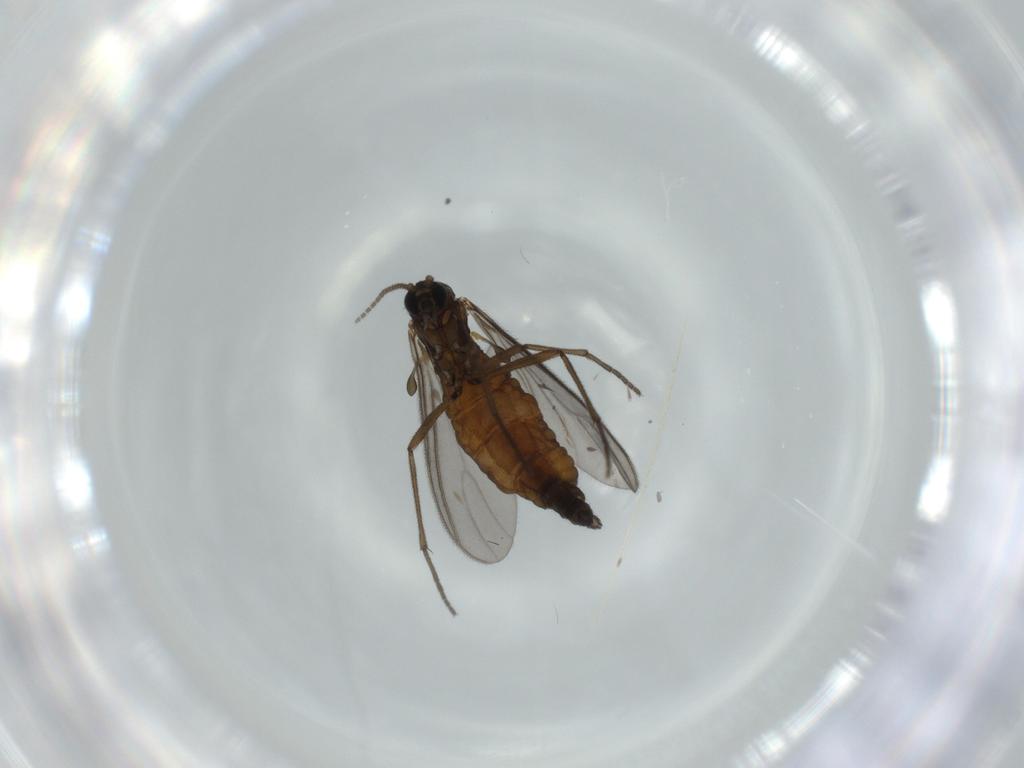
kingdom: Animalia
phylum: Arthropoda
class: Insecta
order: Diptera
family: Sciaridae
